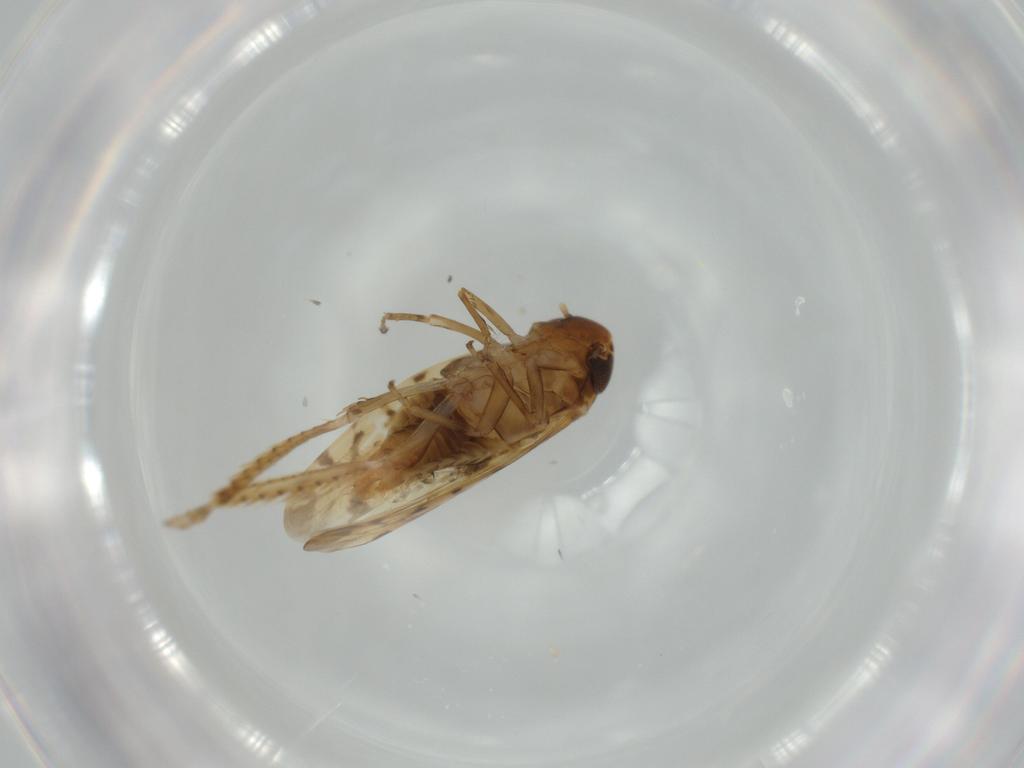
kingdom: Animalia
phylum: Arthropoda
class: Insecta
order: Hemiptera
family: Cicadellidae
